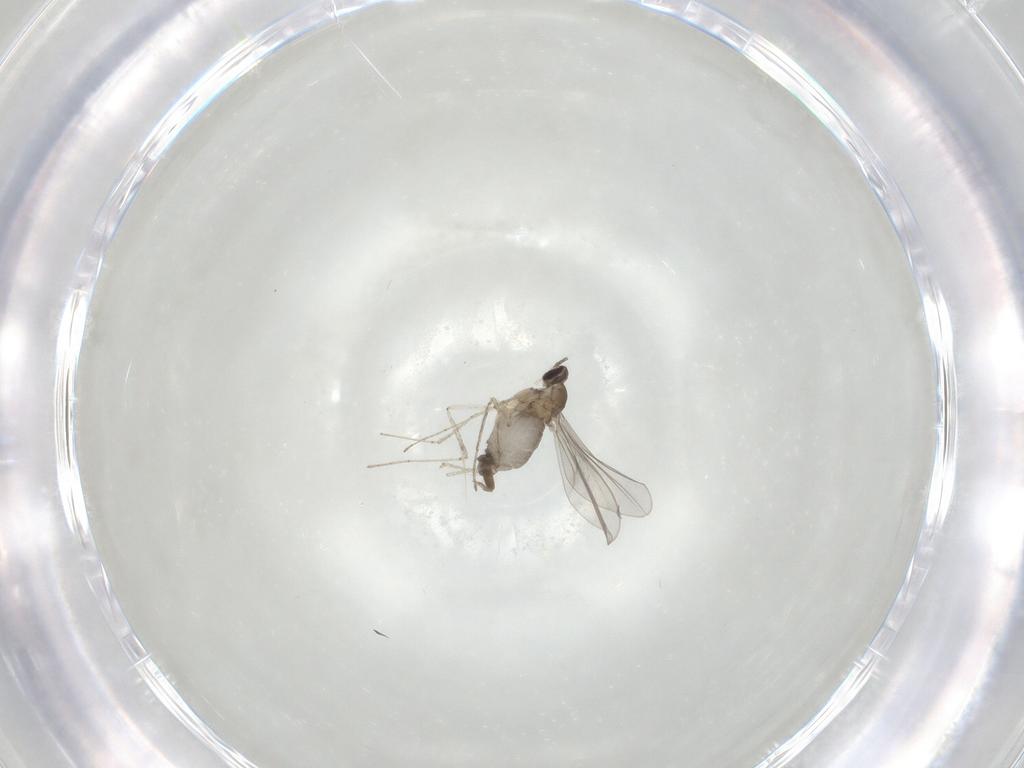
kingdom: Animalia
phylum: Arthropoda
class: Insecta
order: Diptera
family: Cecidomyiidae
